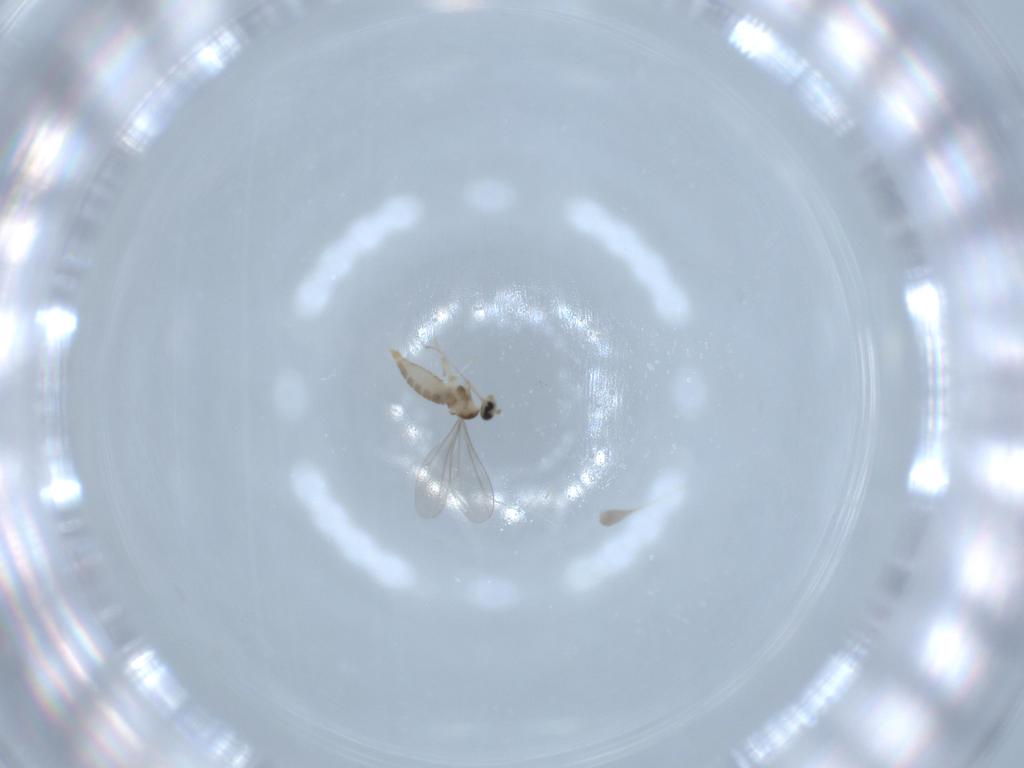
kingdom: Animalia
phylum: Arthropoda
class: Insecta
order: Diptera
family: Cecidomyiidae
